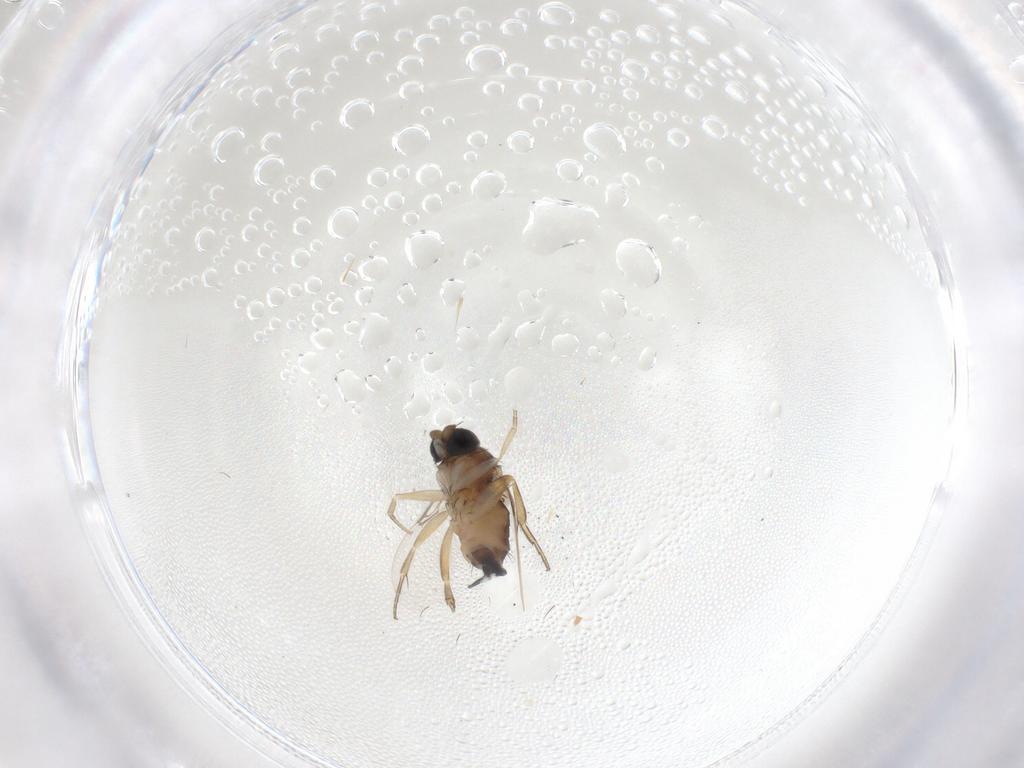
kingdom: Animalia
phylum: Arthropoda
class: Insecta
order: Diptera
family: Phoridae
